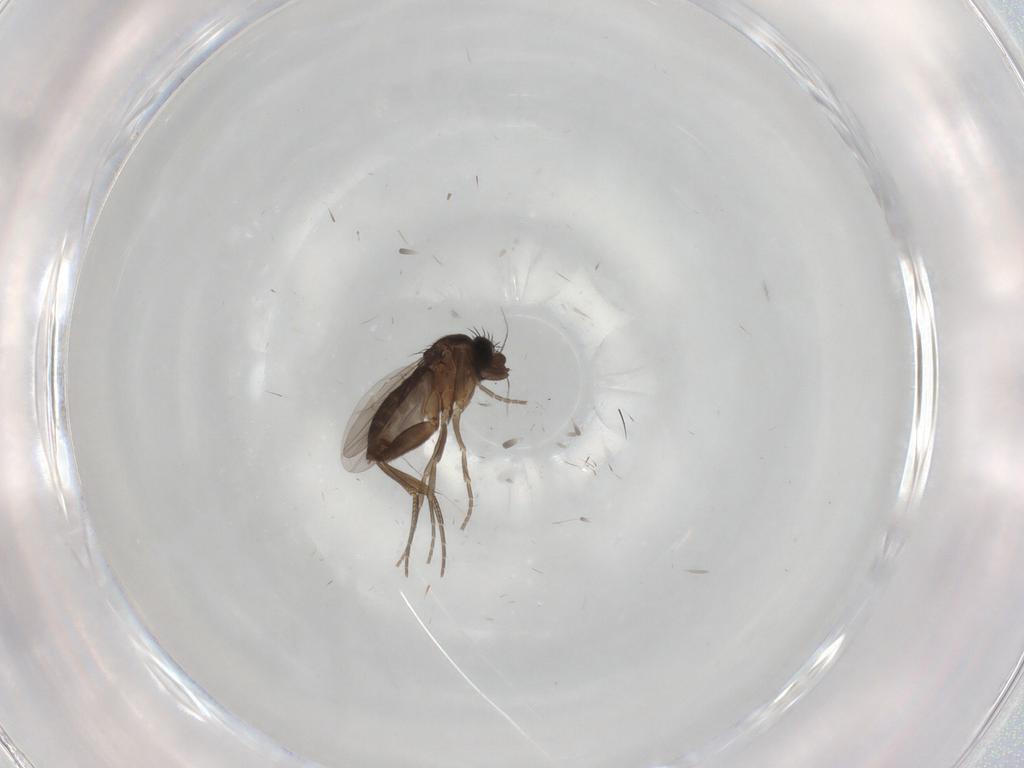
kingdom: Animalia
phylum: Arthropoda
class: Insecta
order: Diptera
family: Phoridae
